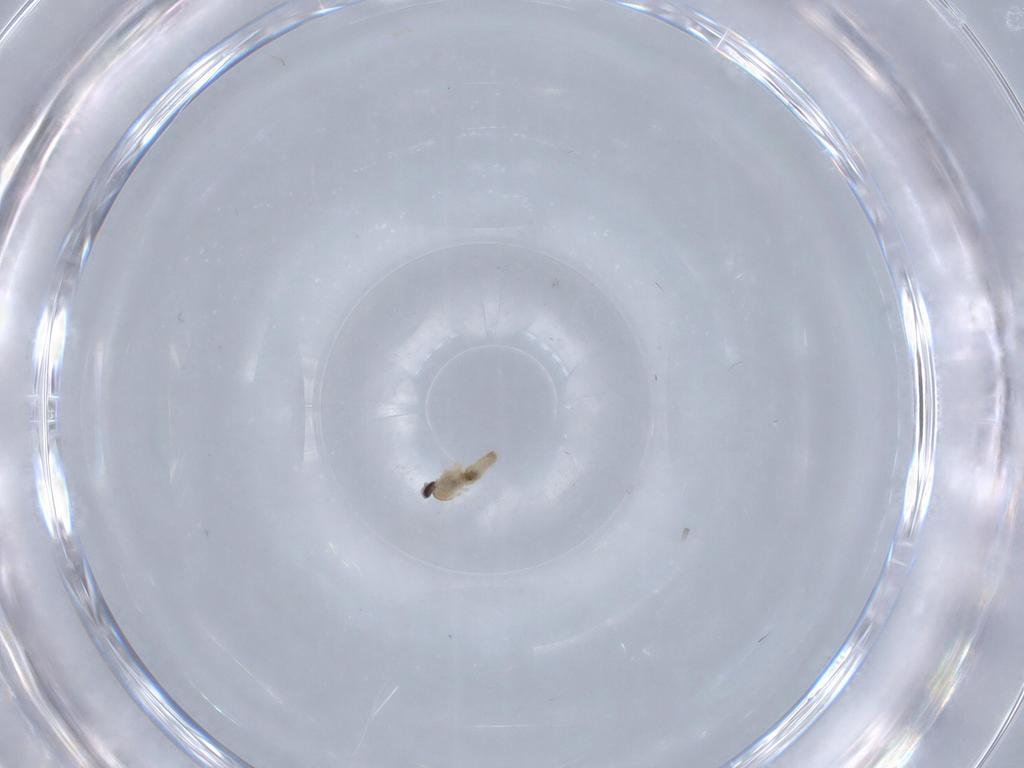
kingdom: Animalia
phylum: Arthropoda
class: Insecta
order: Diptera
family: Cecidomyiidae
